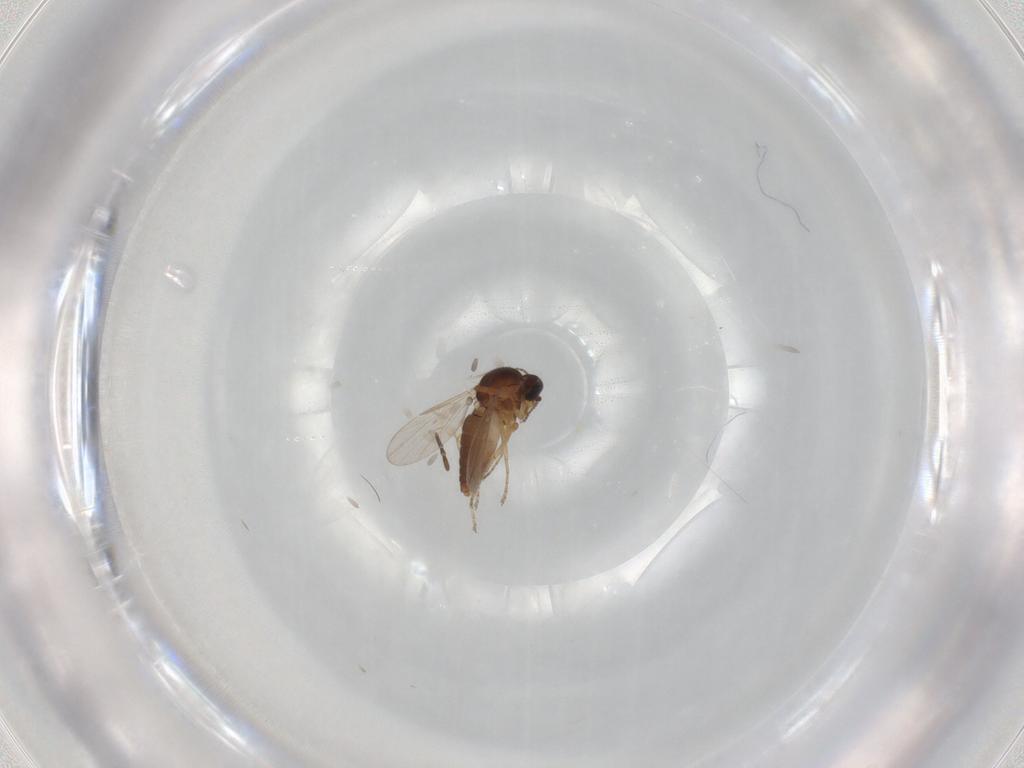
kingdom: Animalia
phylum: Arthropoda
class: Insecta
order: Diptera
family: Ceratopogonidae
